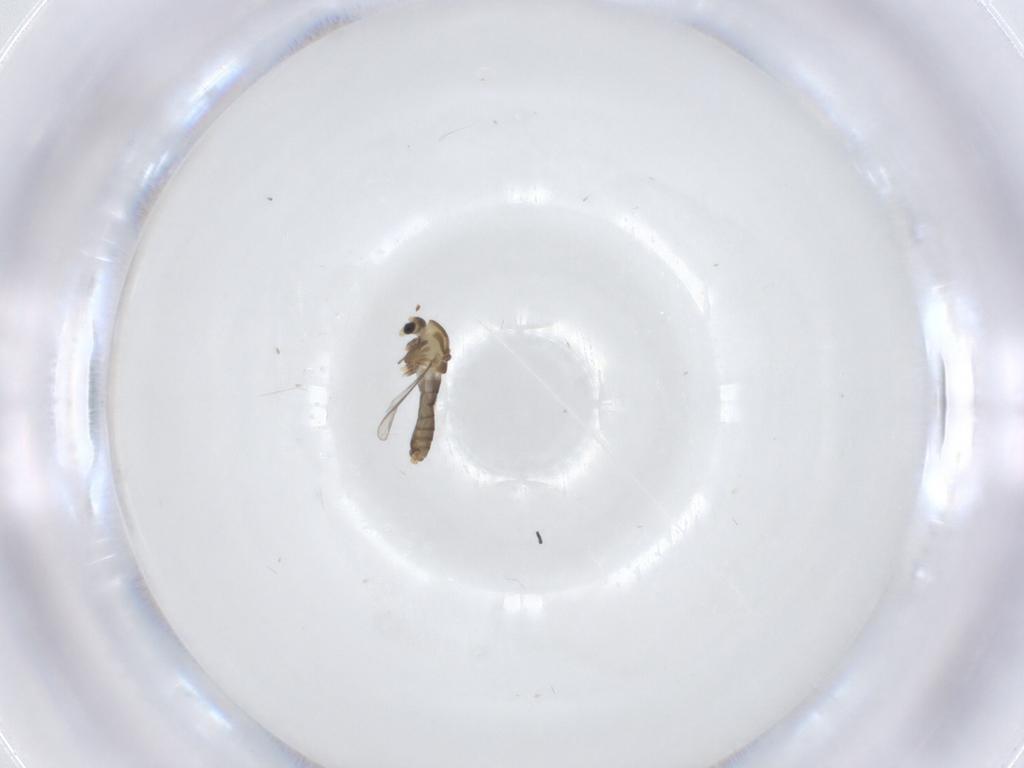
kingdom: Animalia
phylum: Arthropoda
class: Insecta
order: Diptera
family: Chironomidae
